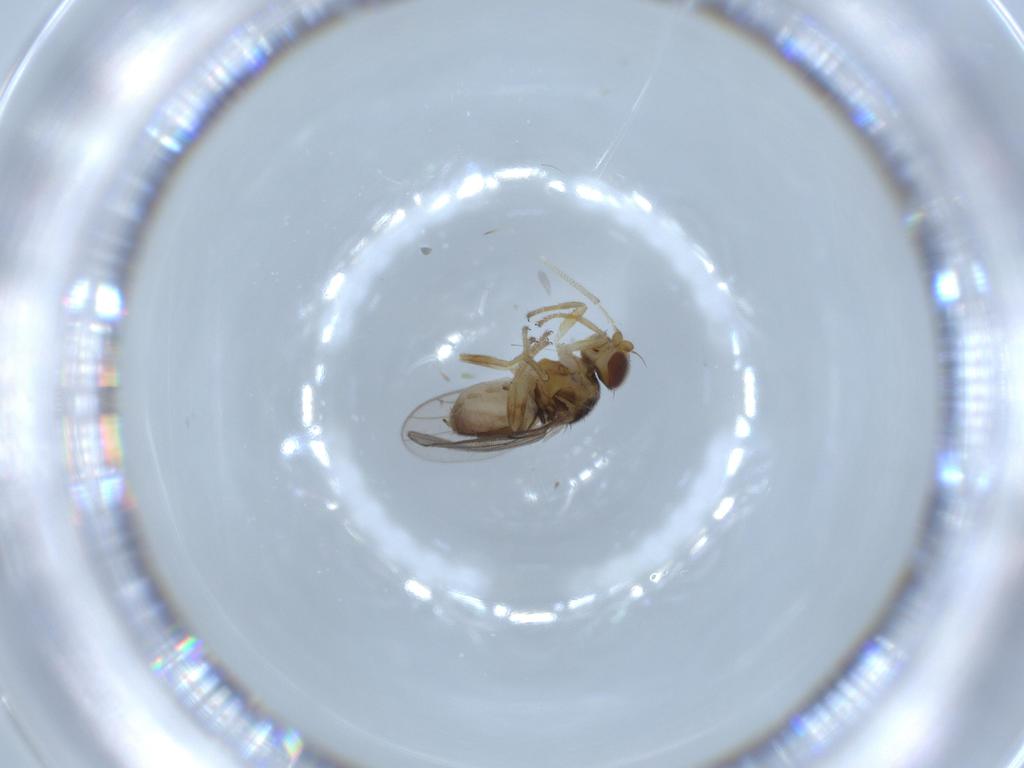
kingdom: Animalia
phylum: Arthropoda
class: Insecta
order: Diptera
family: Chloropidae
